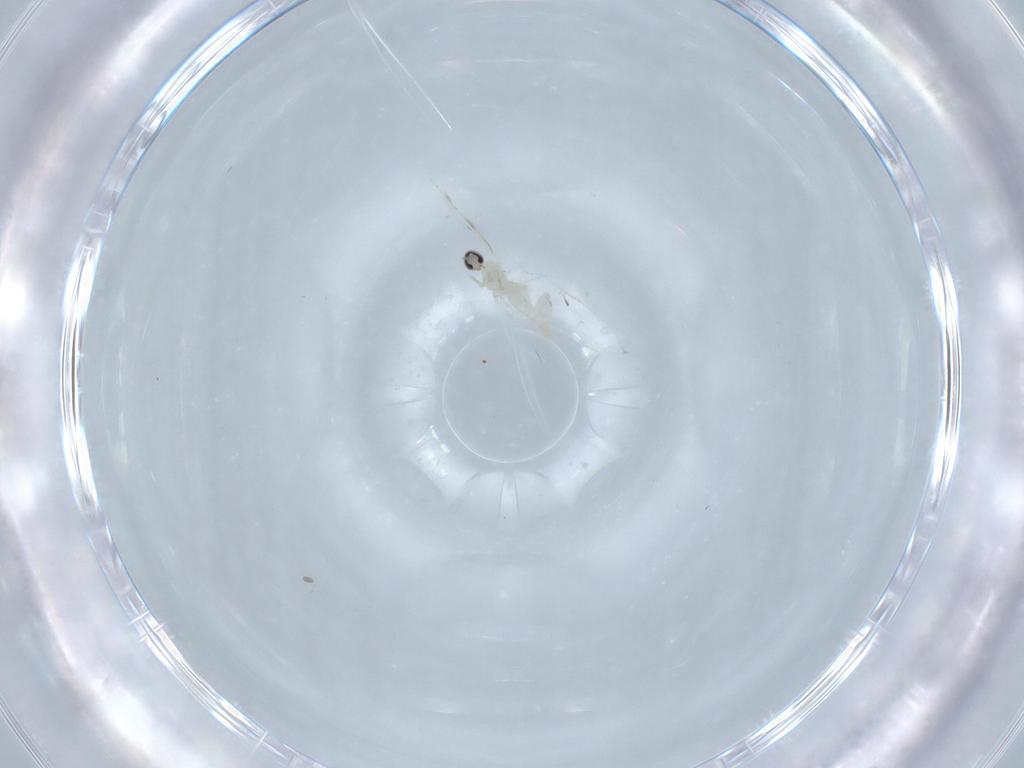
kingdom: Animalia
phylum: Arthropoda
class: Insecta
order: Diptera
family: Cecidomyiidae
